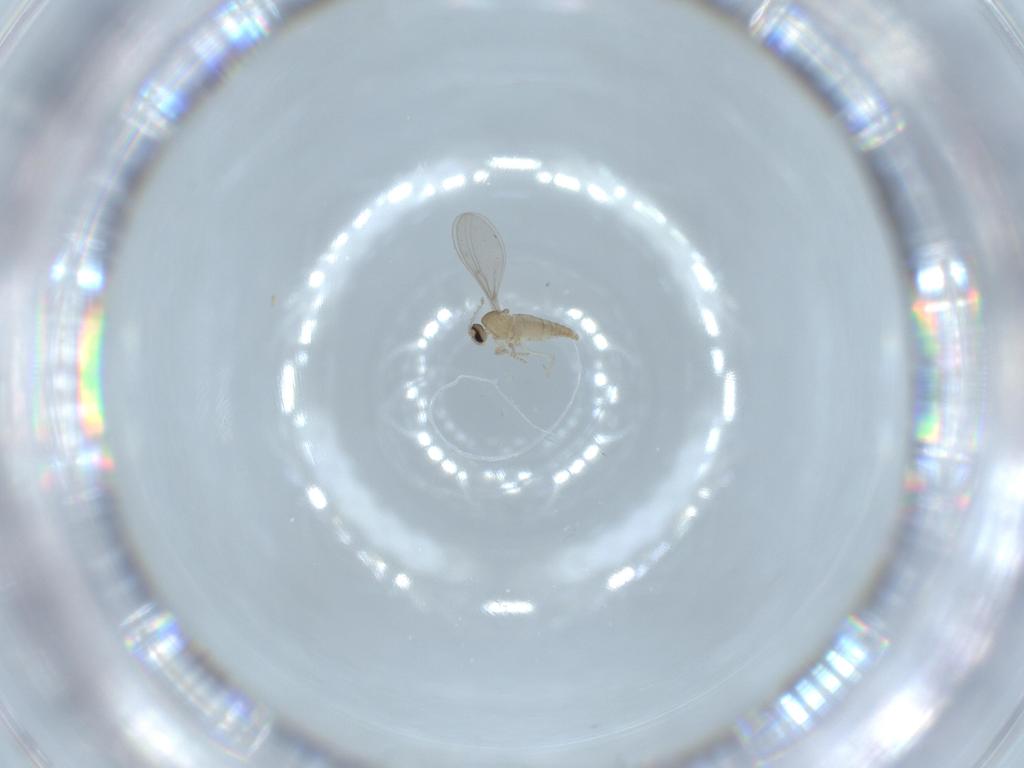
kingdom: Animalia
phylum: Arthropoda
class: Insecta
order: Diptera
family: Cecidomyiidae
